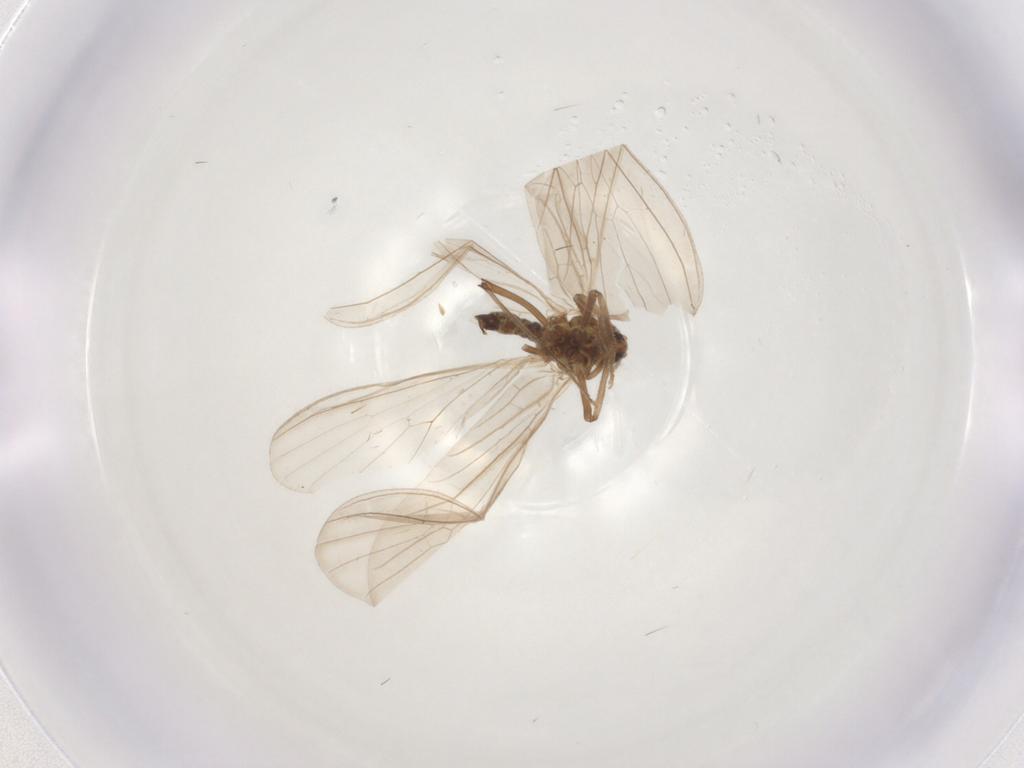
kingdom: Animalia
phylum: Arthropoda
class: Insecta
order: Neuroptera
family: Coniopterygidae
